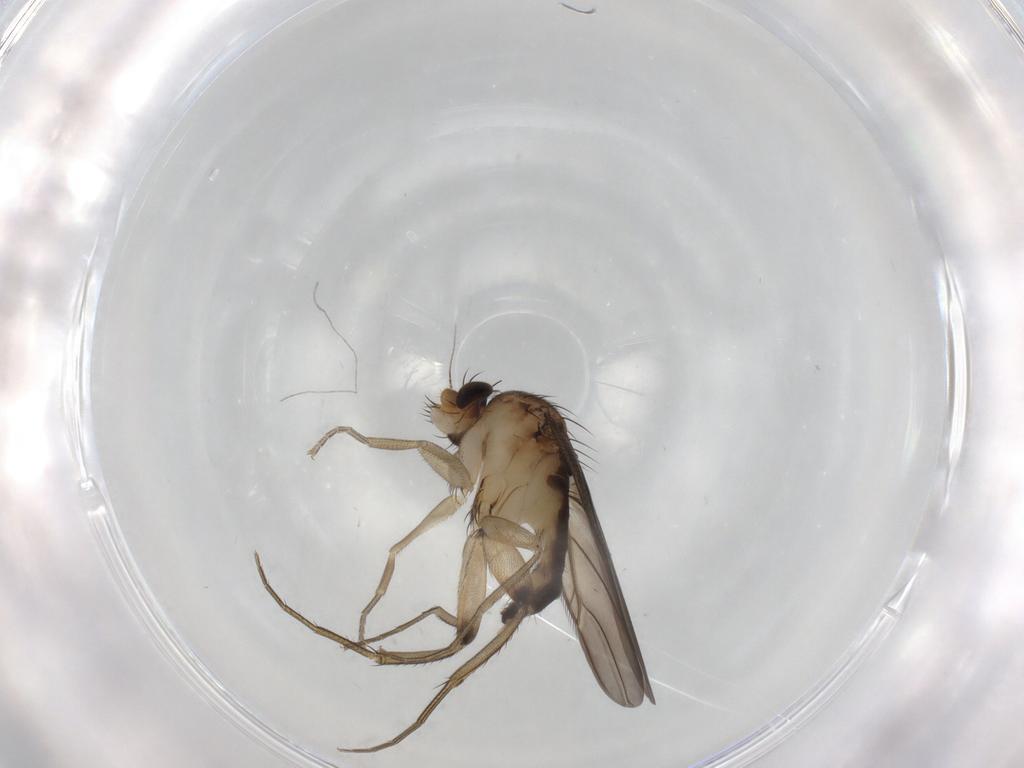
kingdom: Animalia
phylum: Arthropoda
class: Insecta
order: Diptera
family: Phoridae
